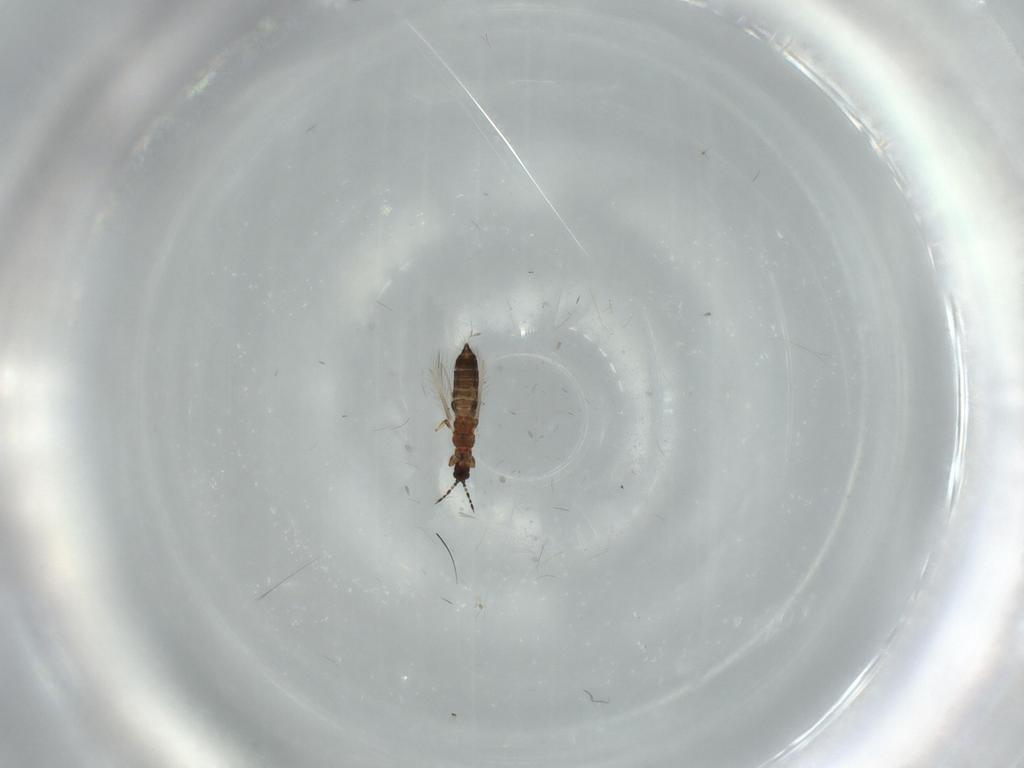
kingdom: Animalia
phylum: Arthropoda
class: Insecta
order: Thysanoptera
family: Thripidae
